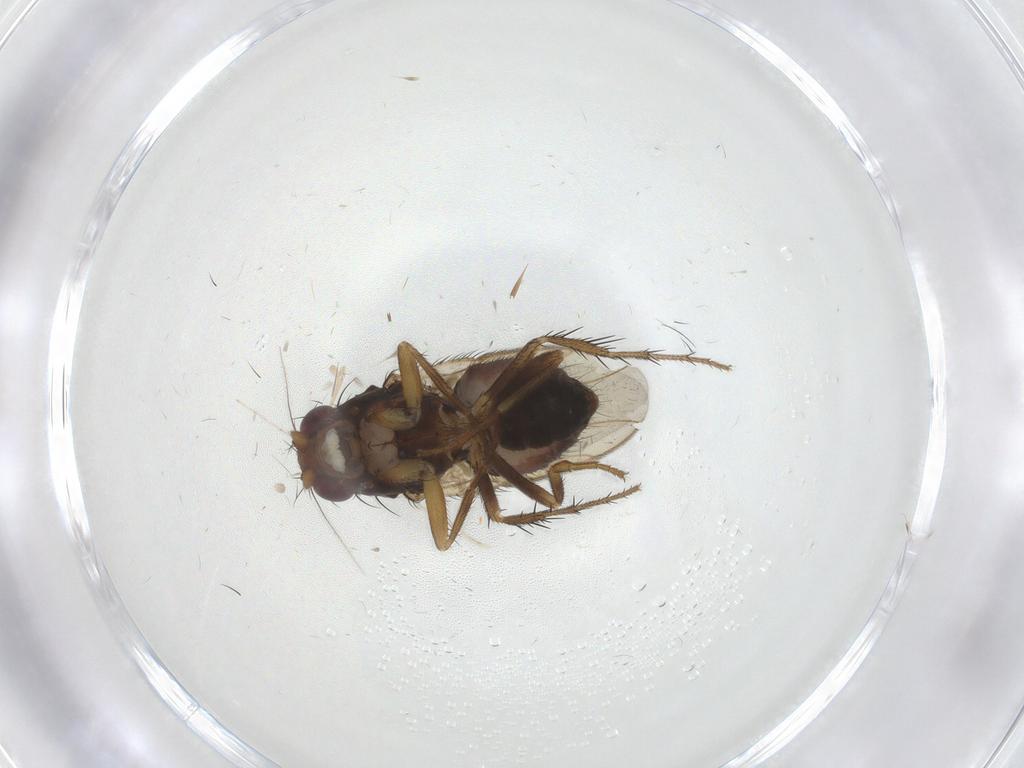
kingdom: Animalia
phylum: Arthropoda
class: Insecta
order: Diptera
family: Sphaeroceridae
